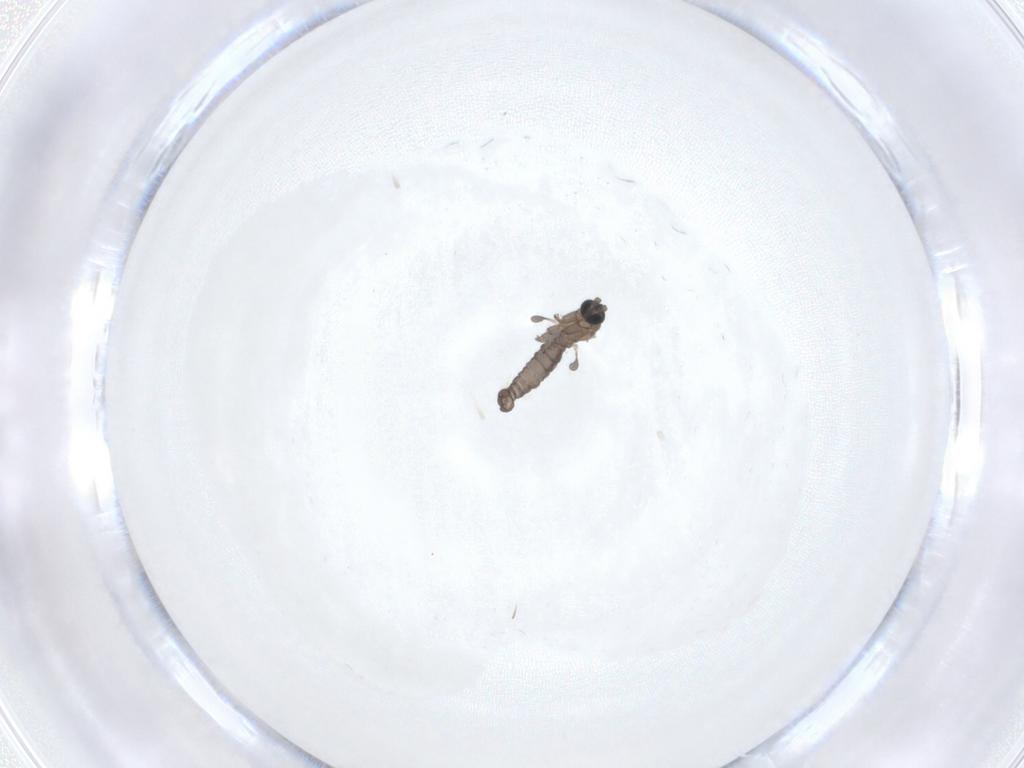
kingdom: Animalia
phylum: Arthropoda
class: Insecta
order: Diptera
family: Sciaridae
